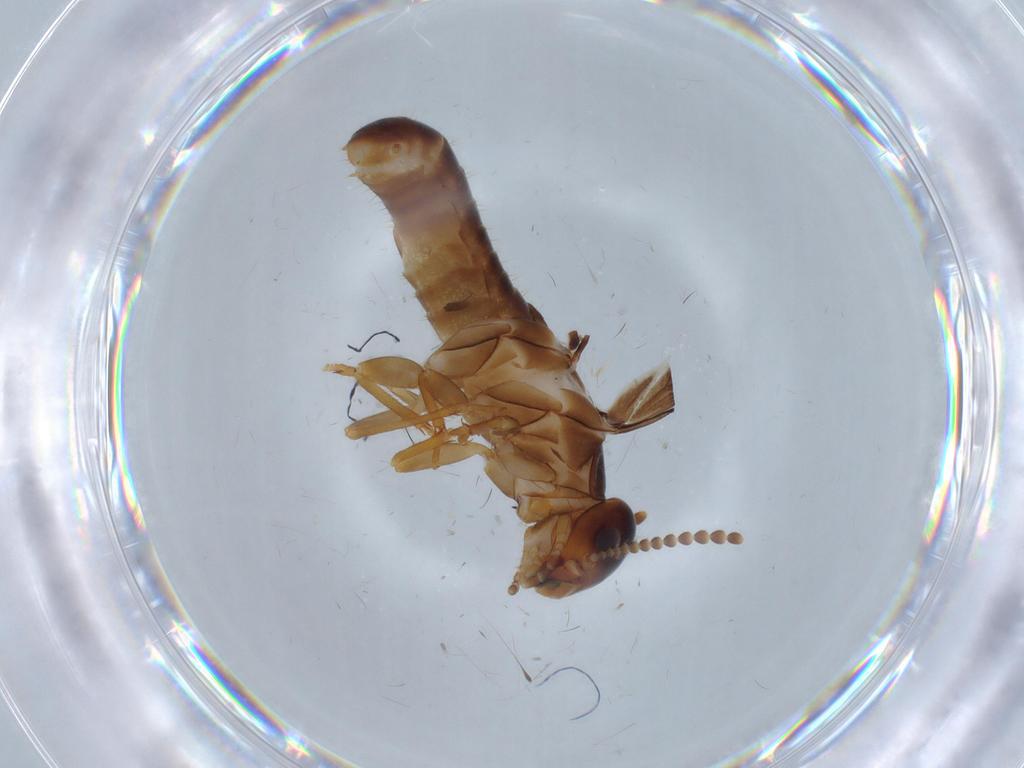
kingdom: Animalia
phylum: Arthropoda
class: Insecta
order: Blattodea
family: Kalotermitidae
